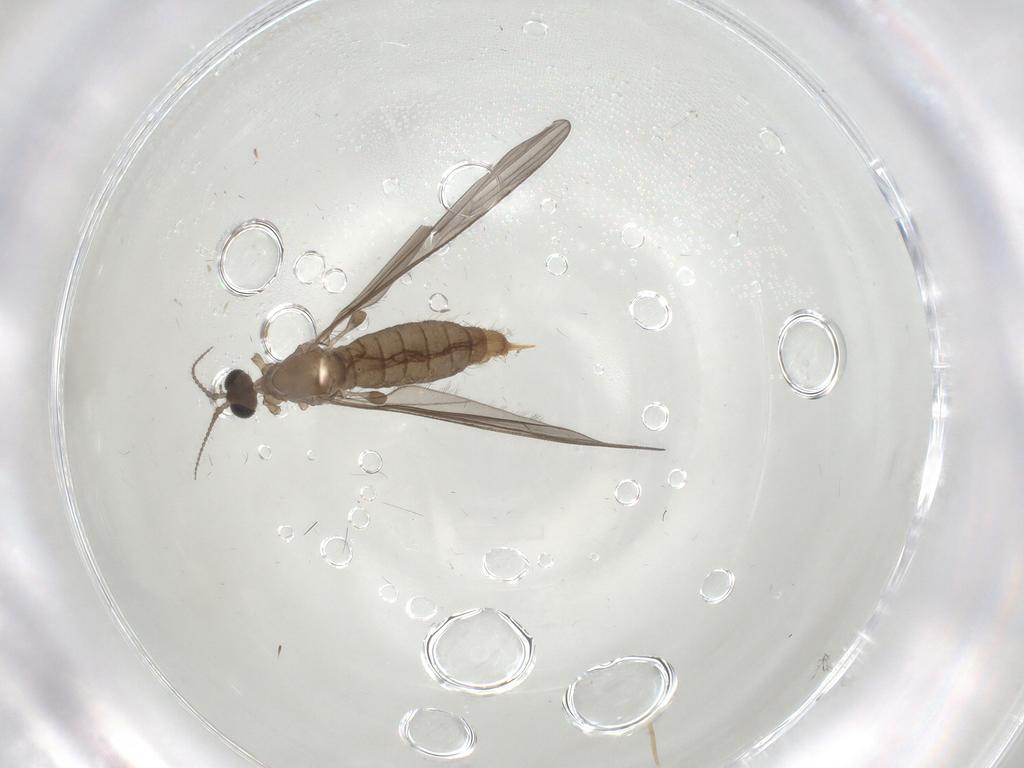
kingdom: Animalia
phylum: Arthropoda
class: Insecta
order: Diptera
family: Limoniidae
